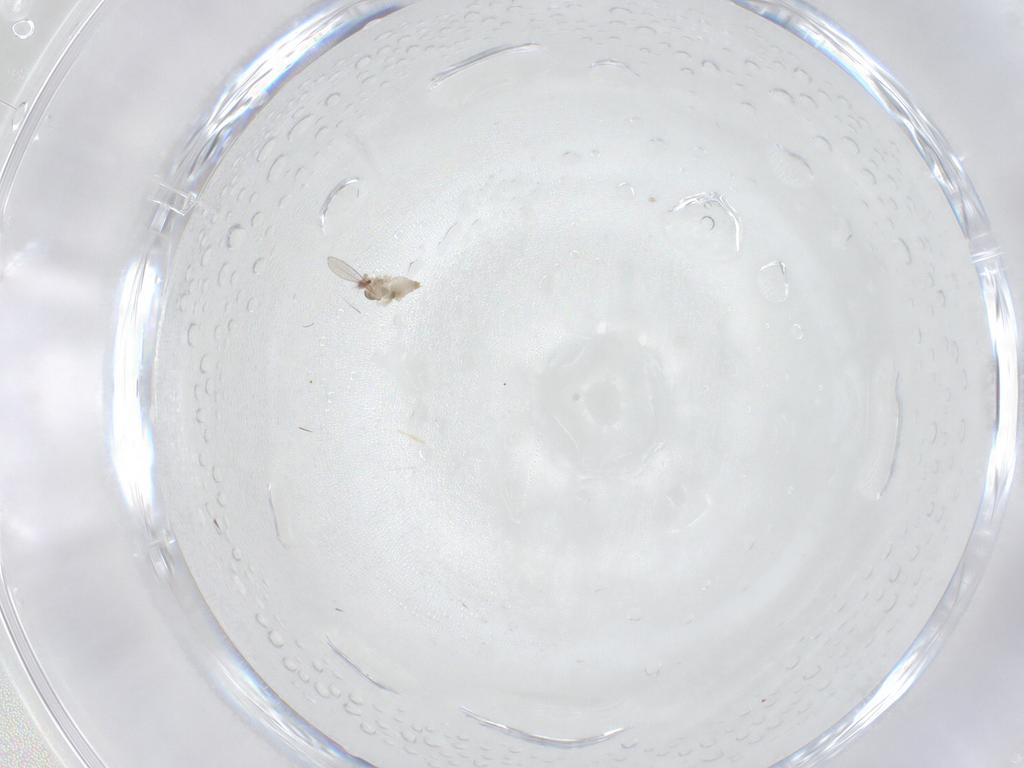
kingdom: Animalia
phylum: Arthropoda
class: Insecta
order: Diptera
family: Cecidomyiidae
